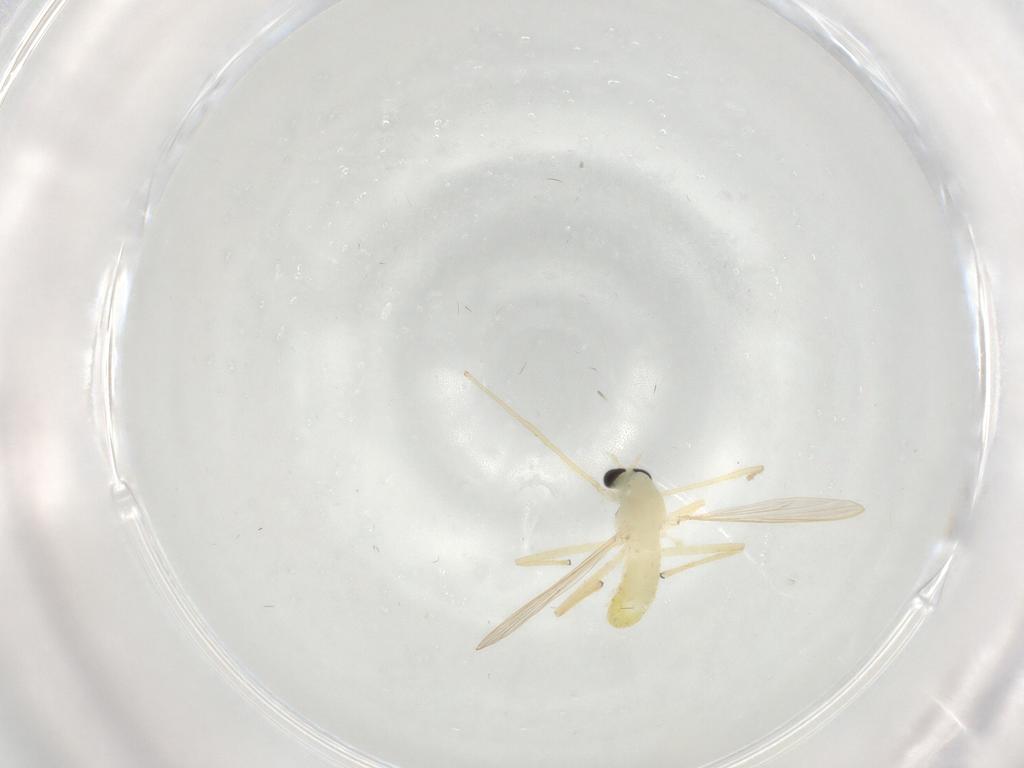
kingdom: Animalia
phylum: Arthropoda
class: Insecta
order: Diptera
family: Chironomidae
